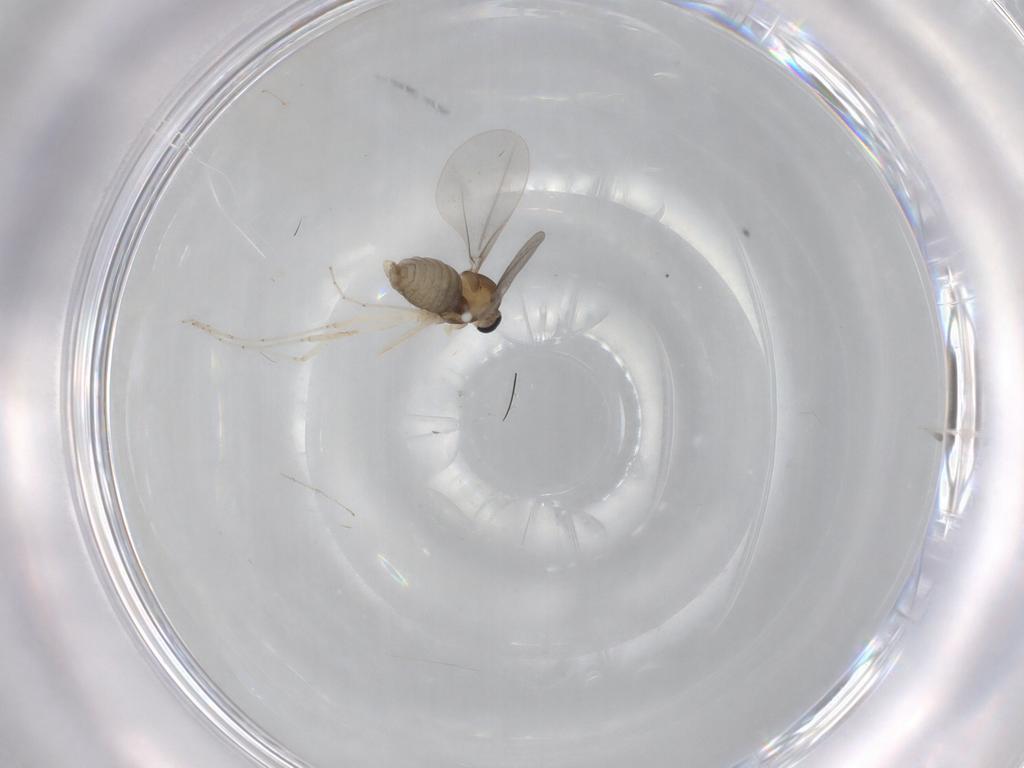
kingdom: Animalia
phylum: Arthropoda
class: Insecta
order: Diptera
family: Cecidomyiidae
